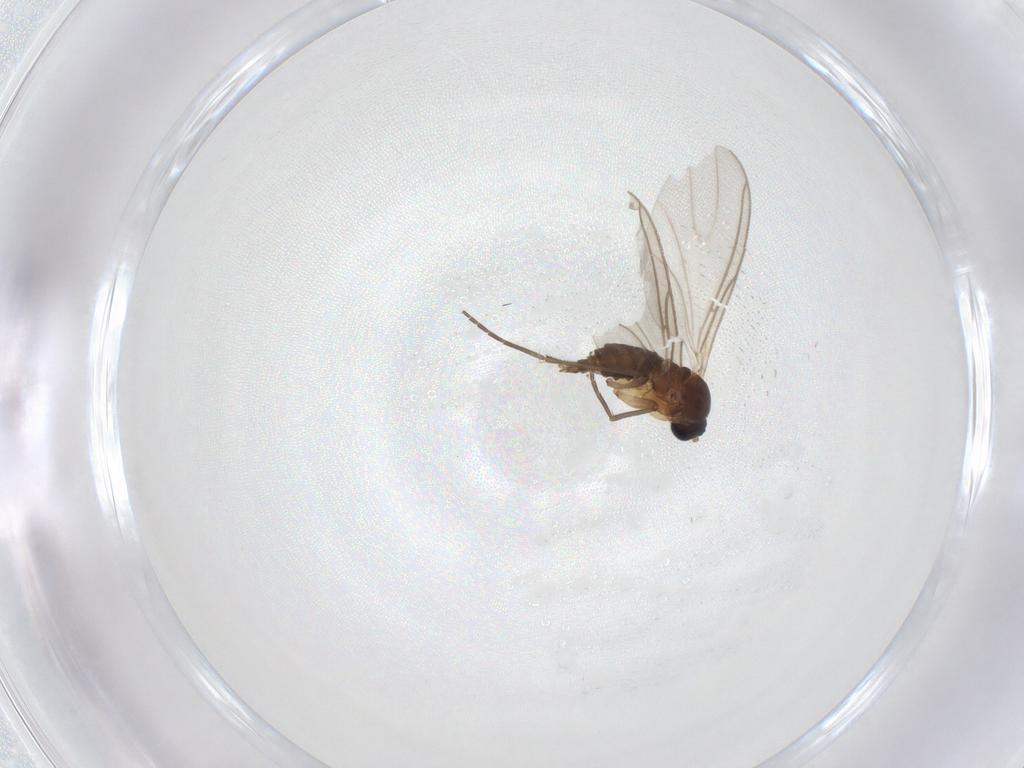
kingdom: Animalia
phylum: Arthropoda
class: Insecta
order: Diptera
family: Sciaridae
